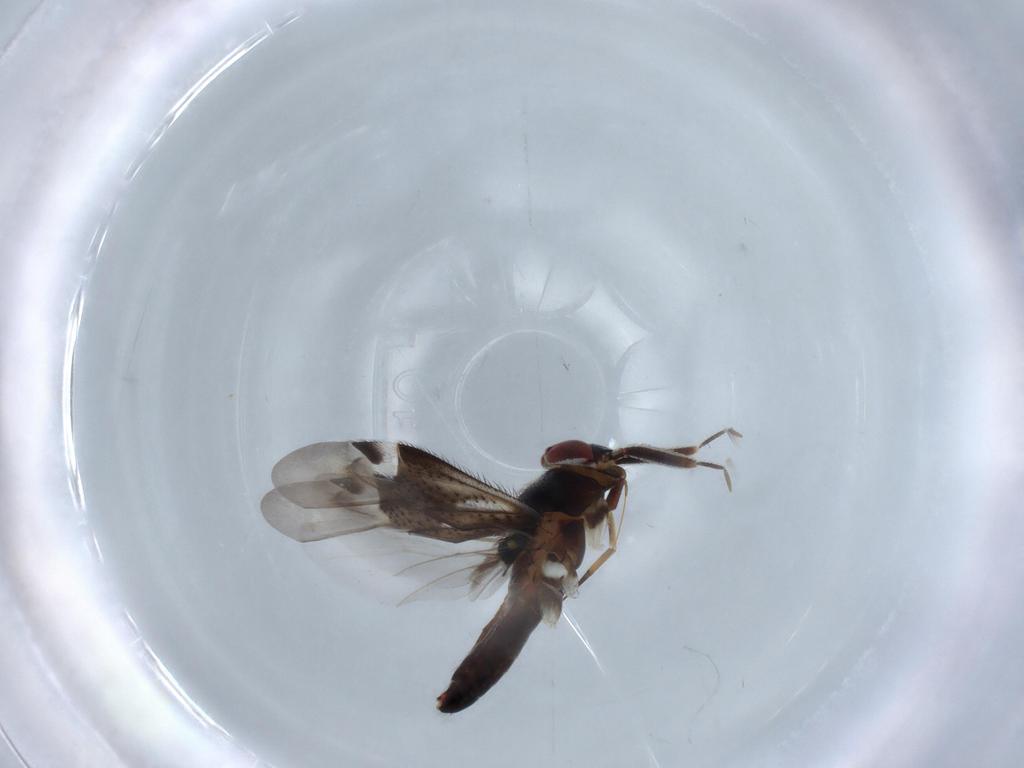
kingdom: Animalia
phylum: Arthropoda
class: Insecta
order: Hemiptera
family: Miridae
